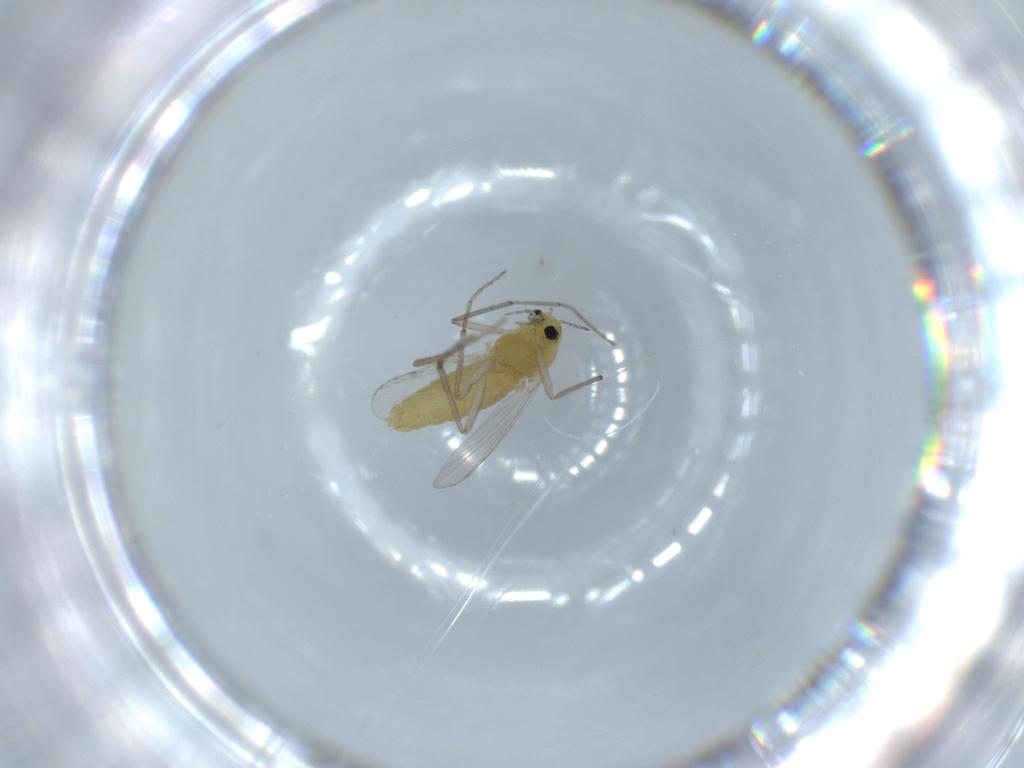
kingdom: Animalia
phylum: Arthropoda
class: Insecta
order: Diptera
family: Chironomidae
